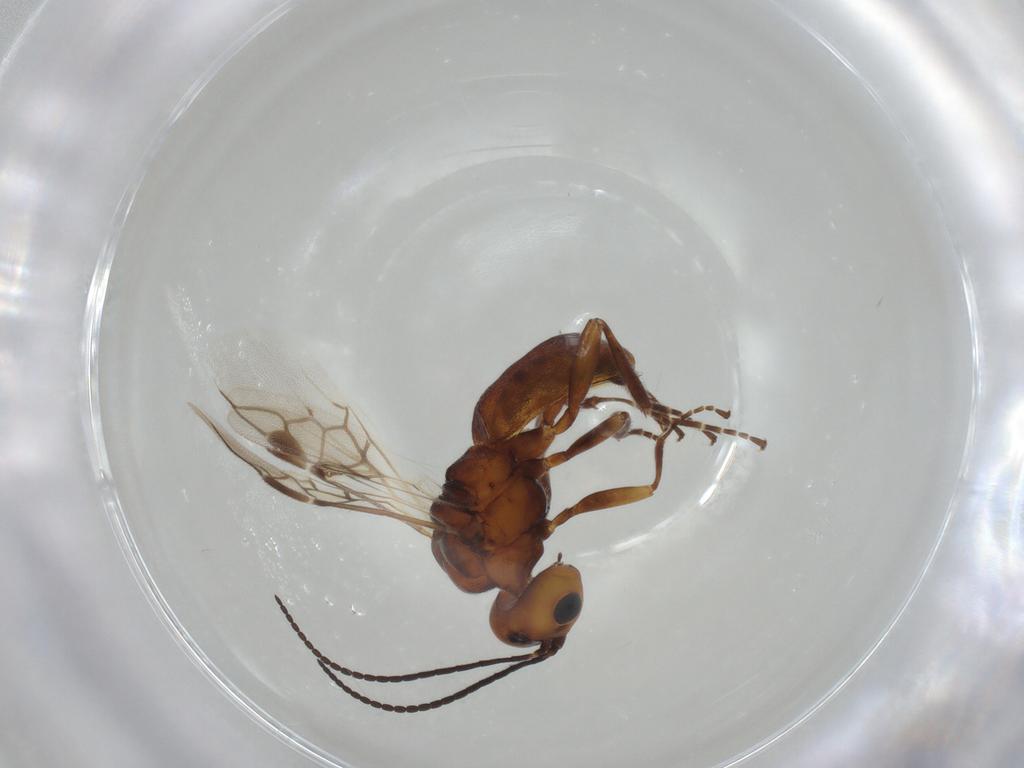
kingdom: Animalia
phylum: Arthropoda
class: Insecta
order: Hymenoptera
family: Braconidae
